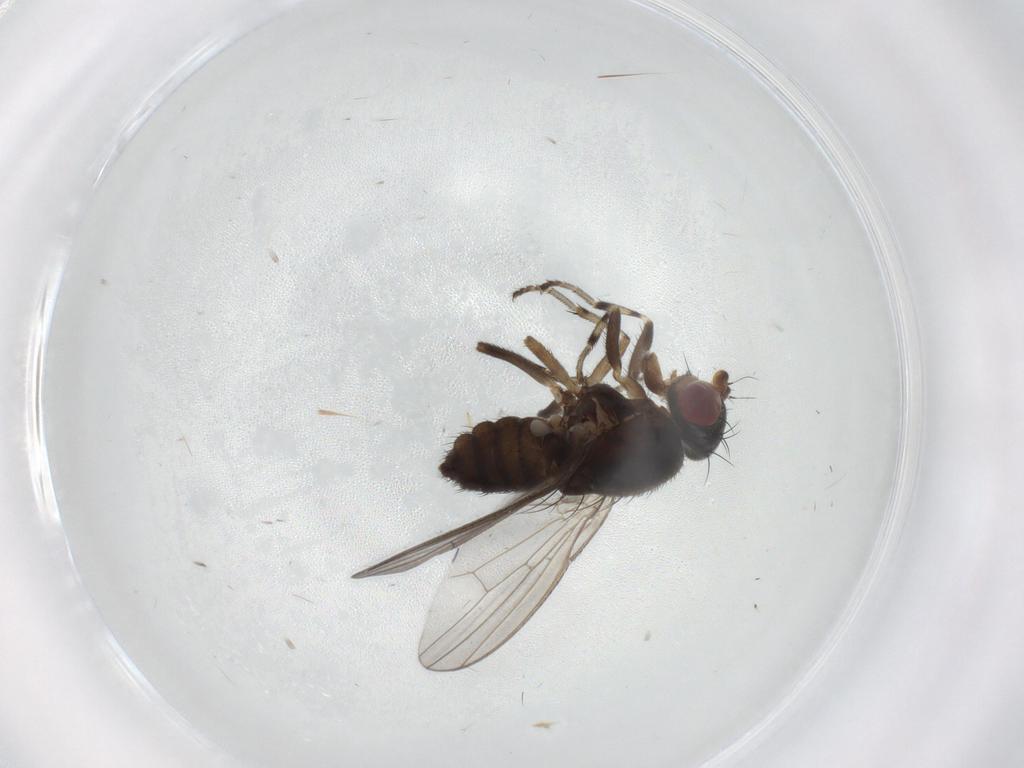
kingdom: Animalia
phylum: Arthropoda
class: Insecta
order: Diptera
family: Heleomyzidae
